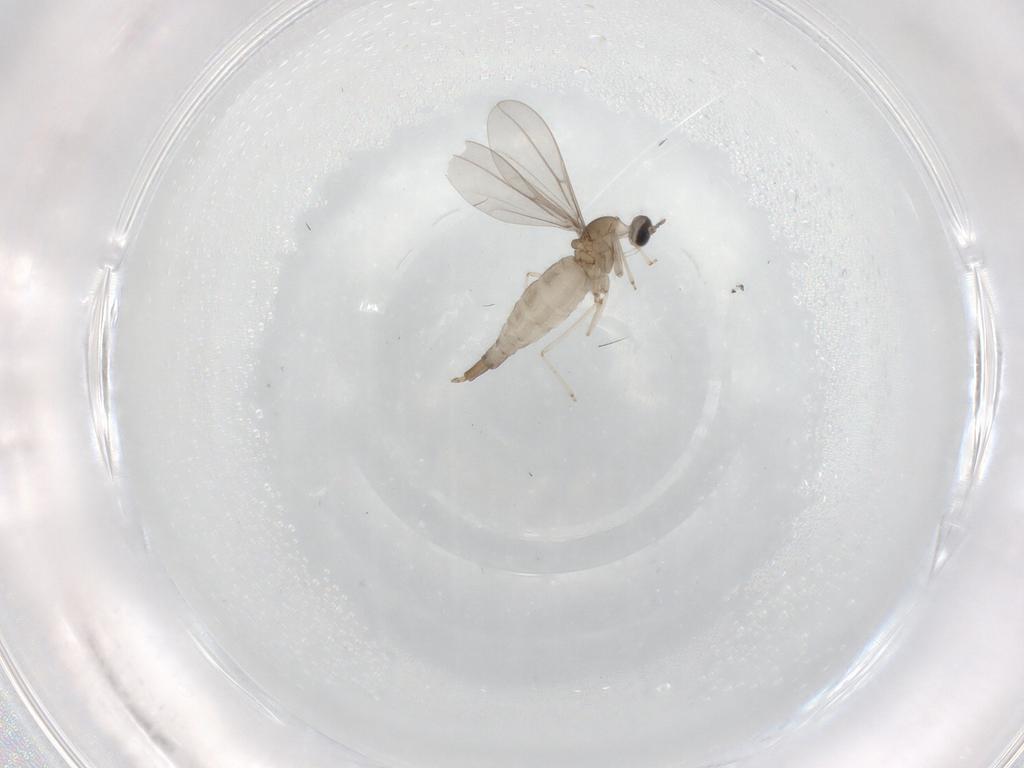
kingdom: Animalia
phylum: Arthropoda
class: Insecta
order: Diptera
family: Cecidomyiidae
